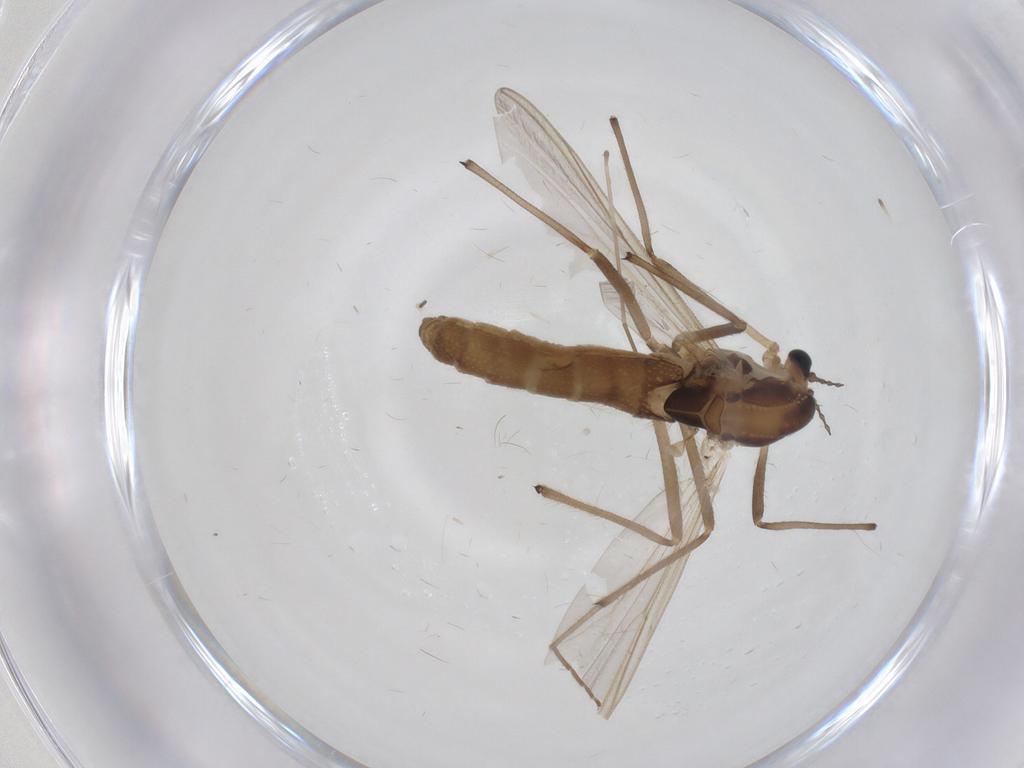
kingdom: Animalia
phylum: Arthropoda
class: Insecta
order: Diptera
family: Chironomidae
